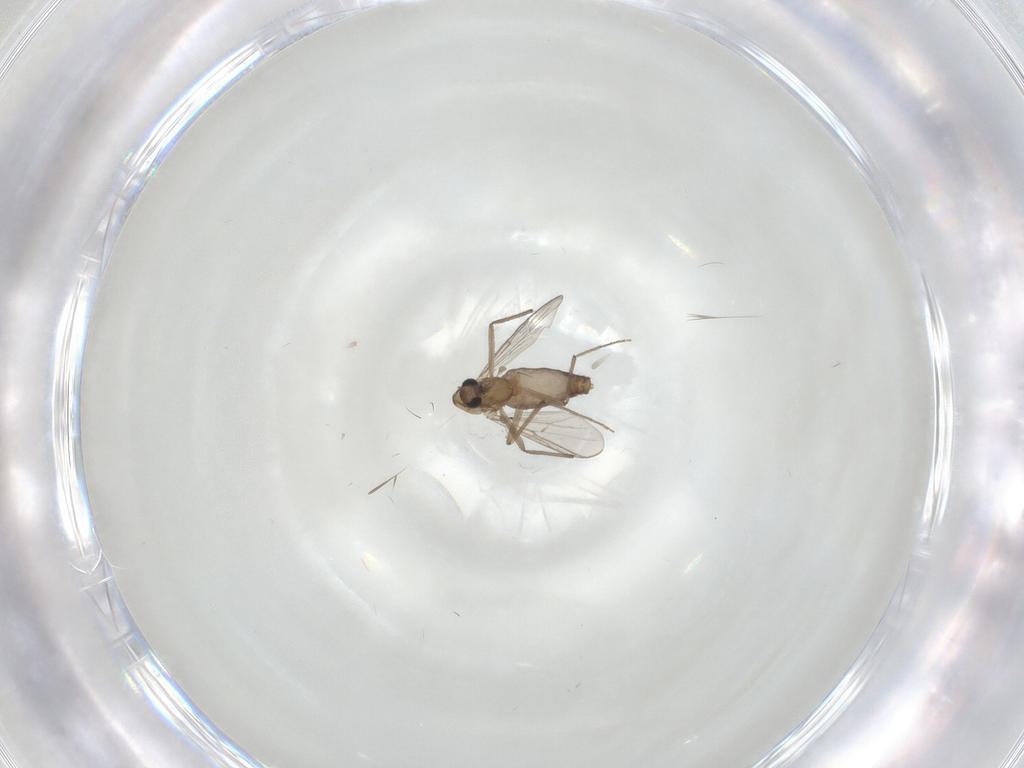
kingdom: Animalia
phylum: Arthropoda
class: Insecta
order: Diptera
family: Chironomidae
